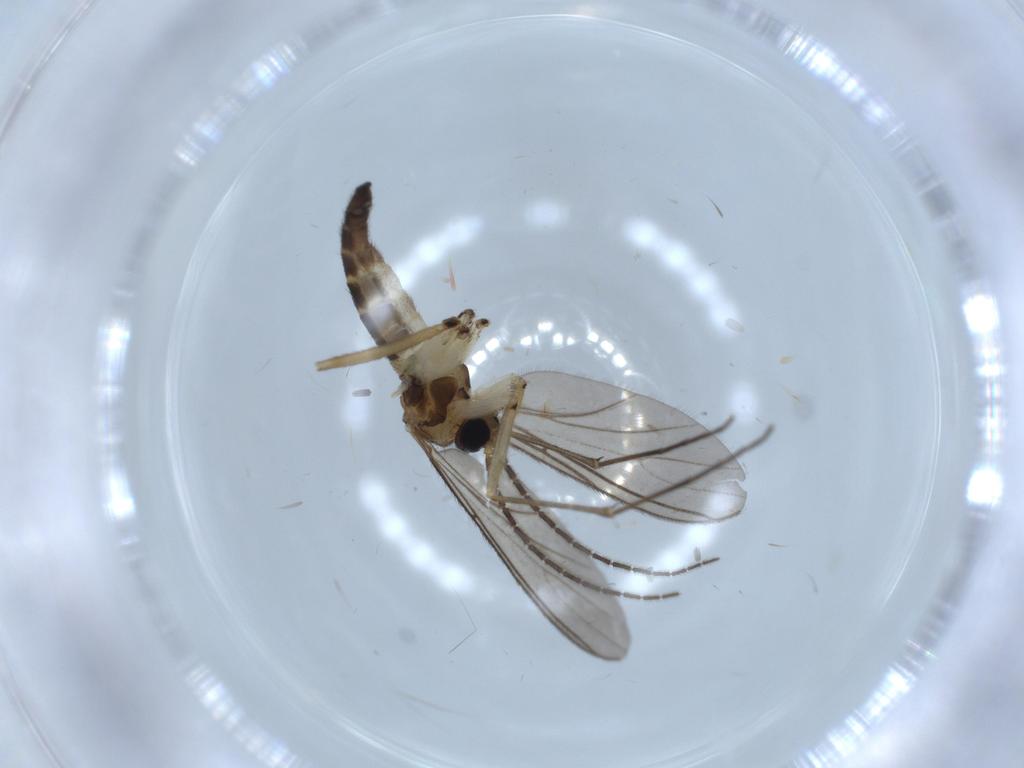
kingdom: Animalia
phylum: Arthropoda
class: Insecta
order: Diptera
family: Sciaridae
